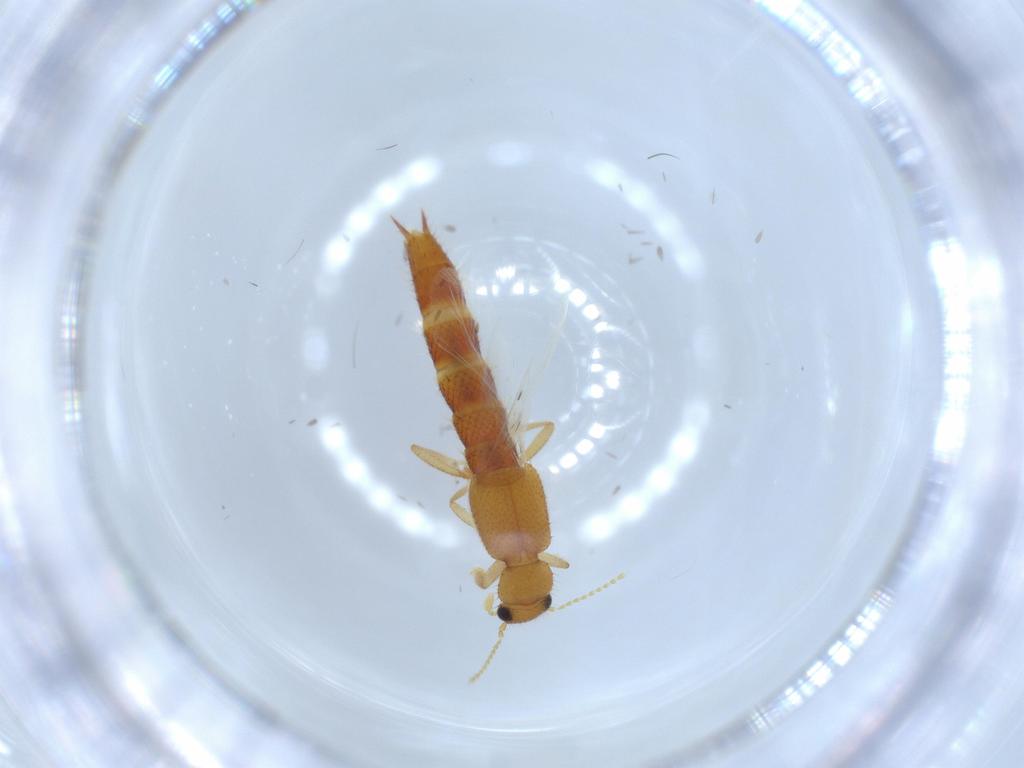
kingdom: Animalia
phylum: Arthropoda
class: Insecta
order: Coleoptera
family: Staphylinidae
